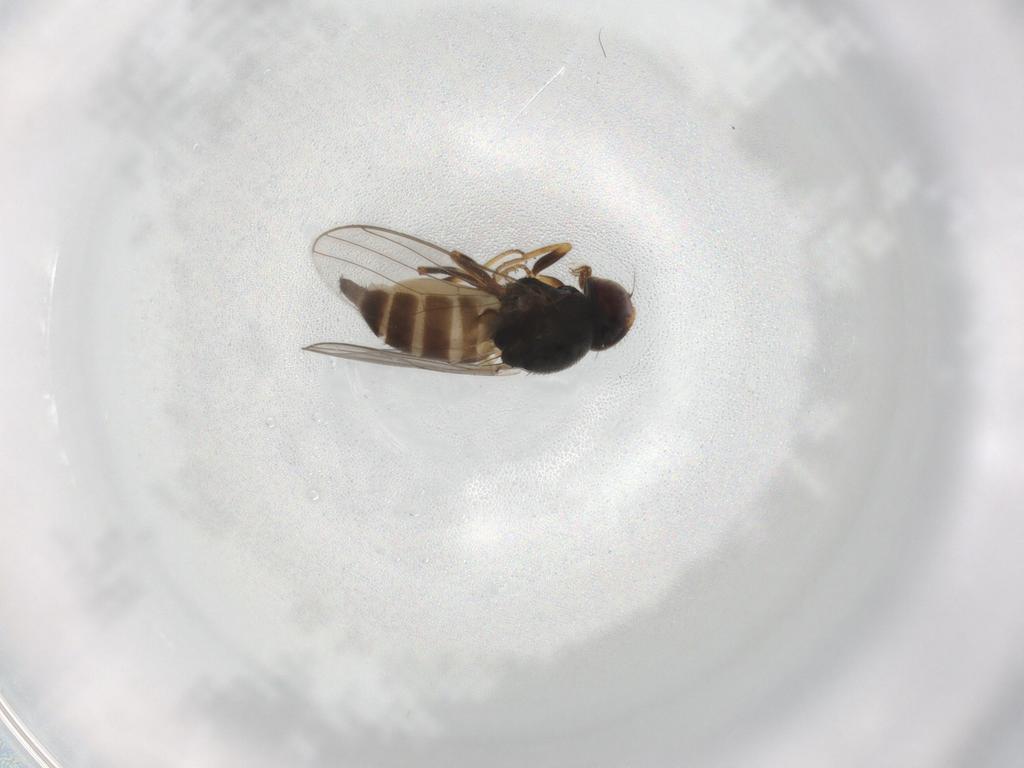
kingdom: Animalia
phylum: Arthropoda
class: Insecta
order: Diptera
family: Chloropidae
